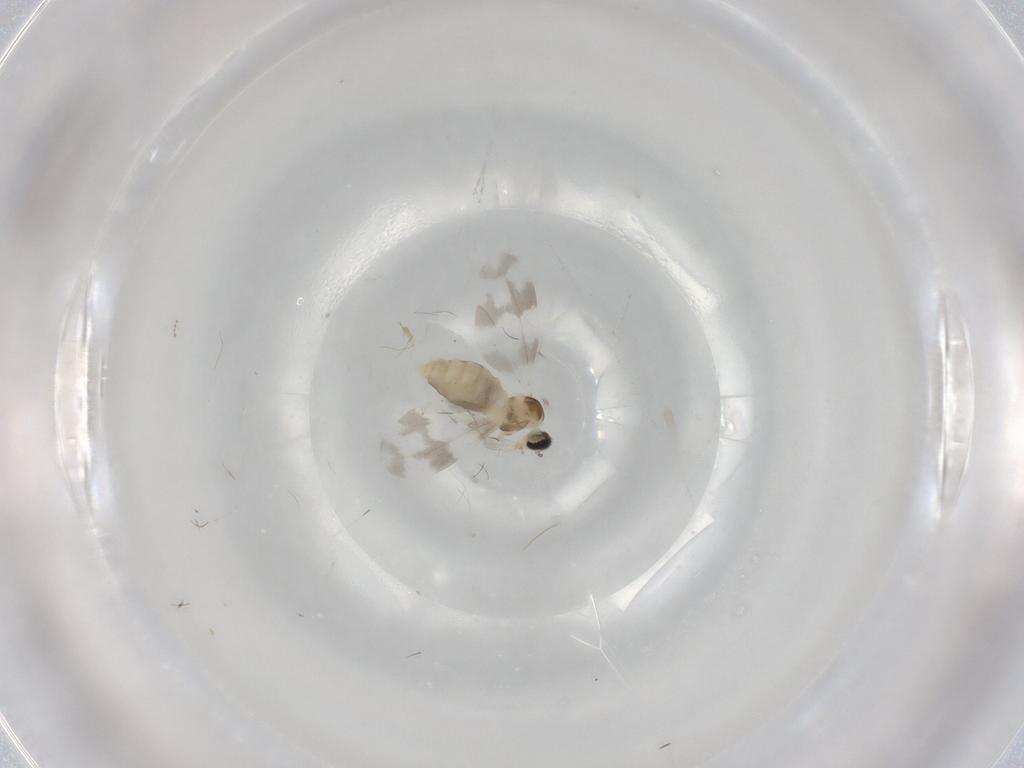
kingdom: Animalia
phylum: Arthropoda
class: Insecta
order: Diptera
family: Cecidomyiidae
